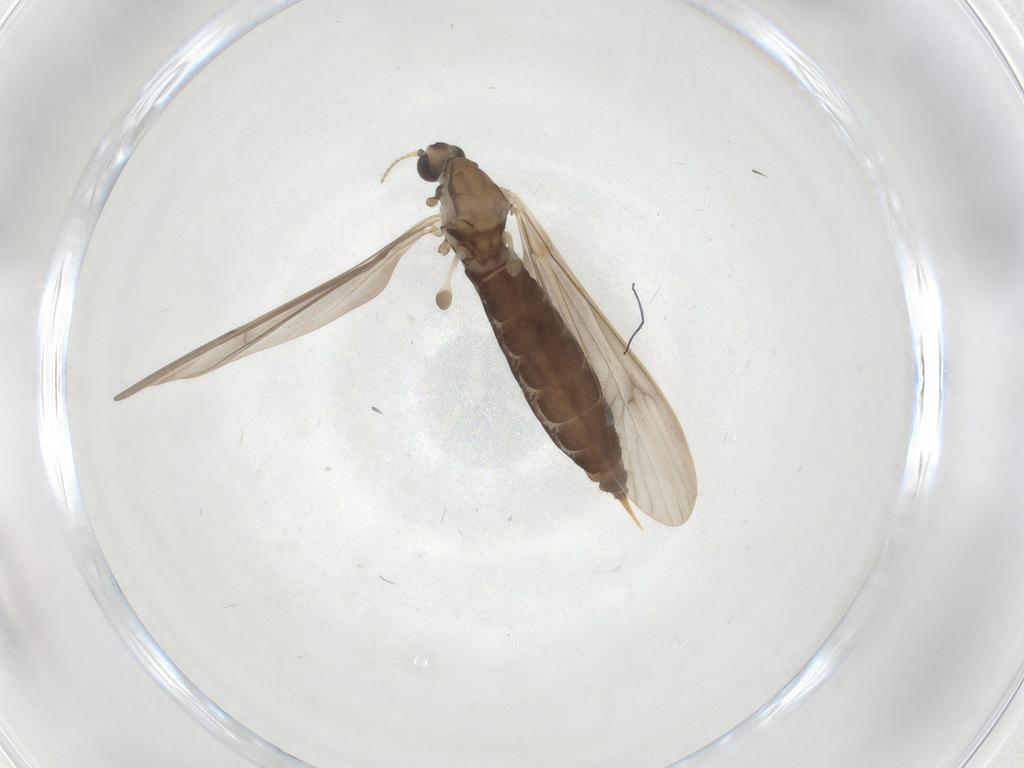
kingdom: Animalia
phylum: Arthropoda
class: Insecta
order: Diptera
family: Limoniidae
